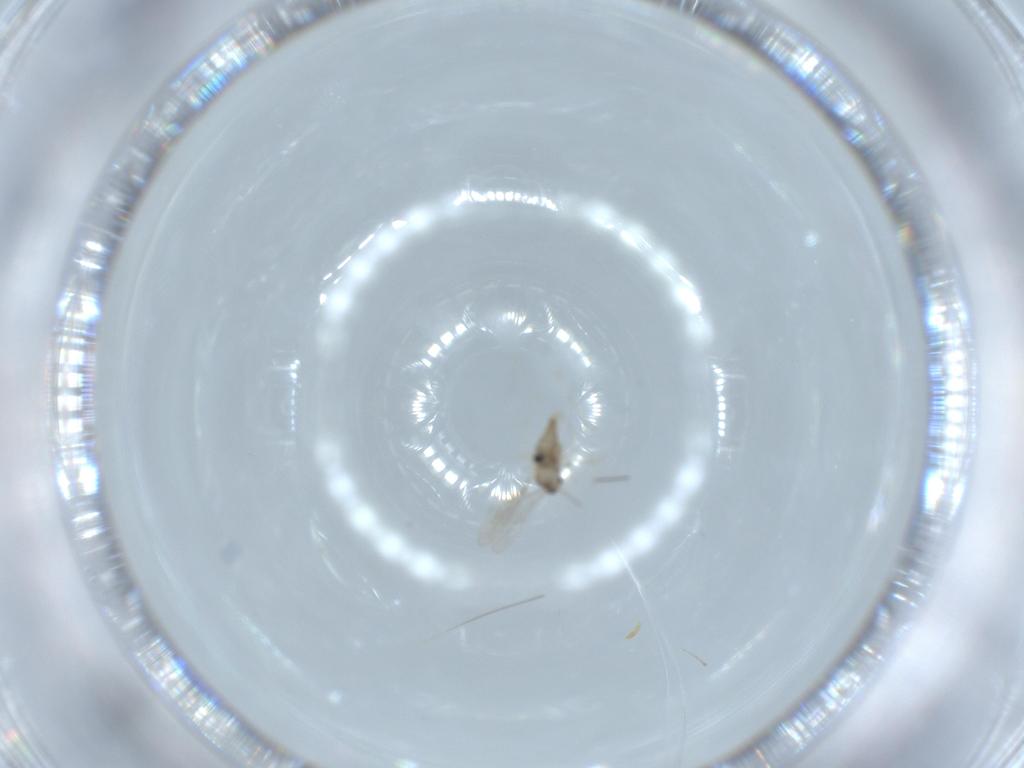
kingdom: Animalia
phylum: Arthropoda
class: Insecta
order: Diptera
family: Cecidomyiidae
